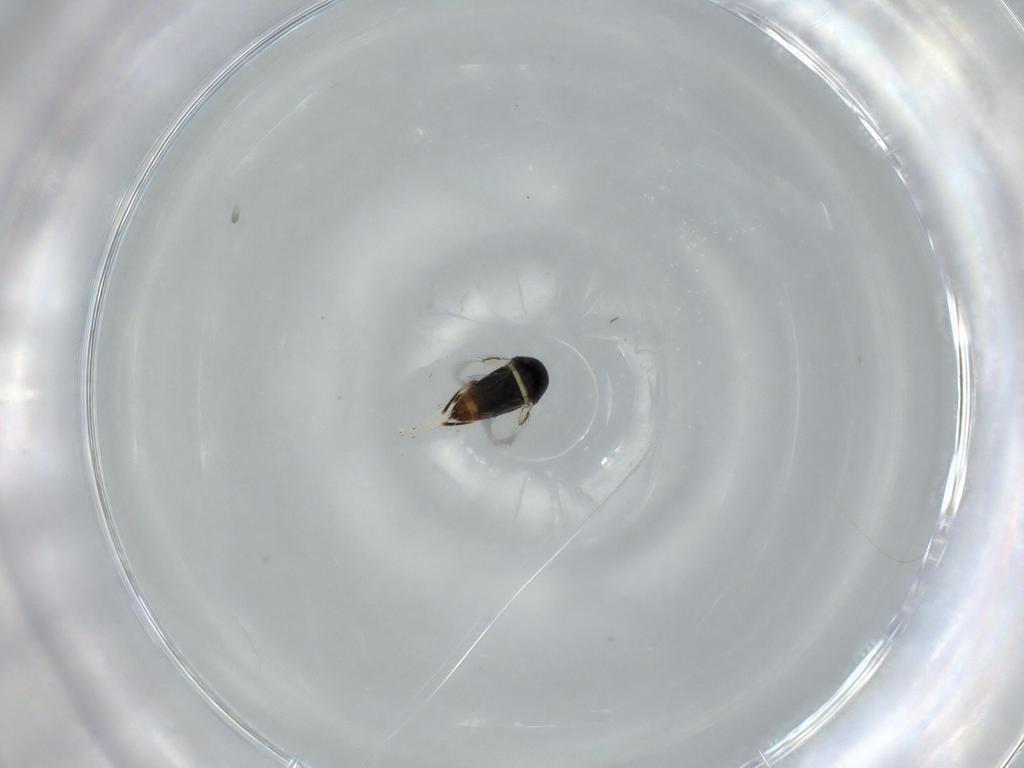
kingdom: Animalia
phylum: Arthropoda
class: Insecta
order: Hymenoptera
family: Signiphoridae
